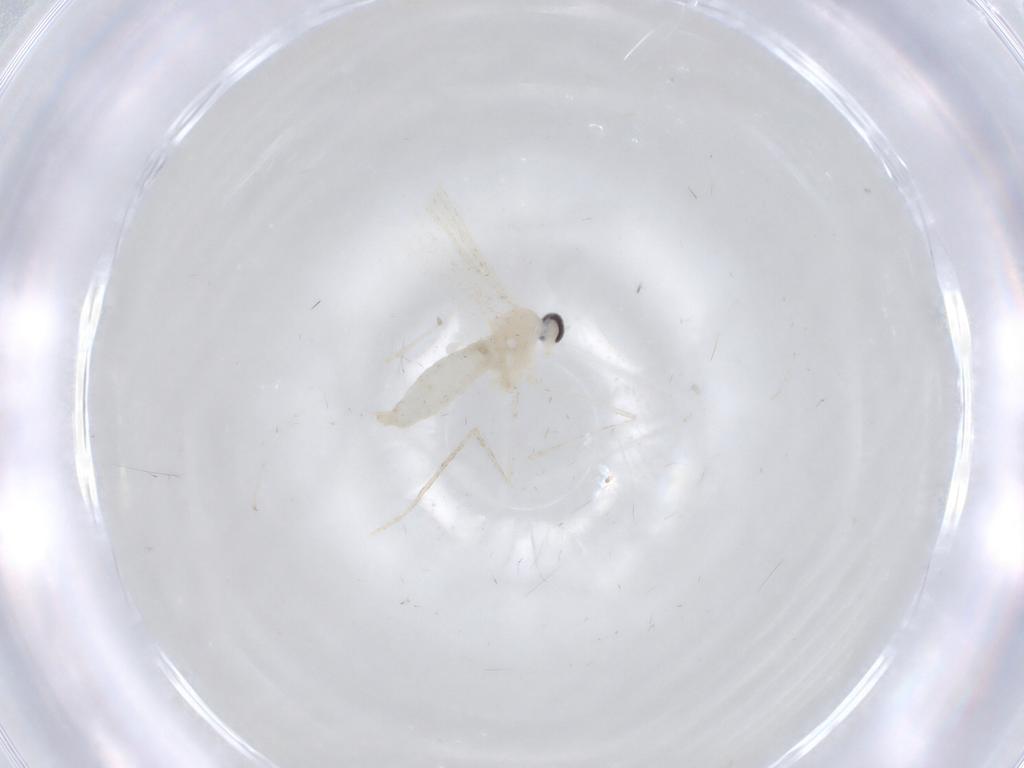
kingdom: Animalia
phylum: Arthropoda
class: Insecta
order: Diptera
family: Cecidomyiidae
